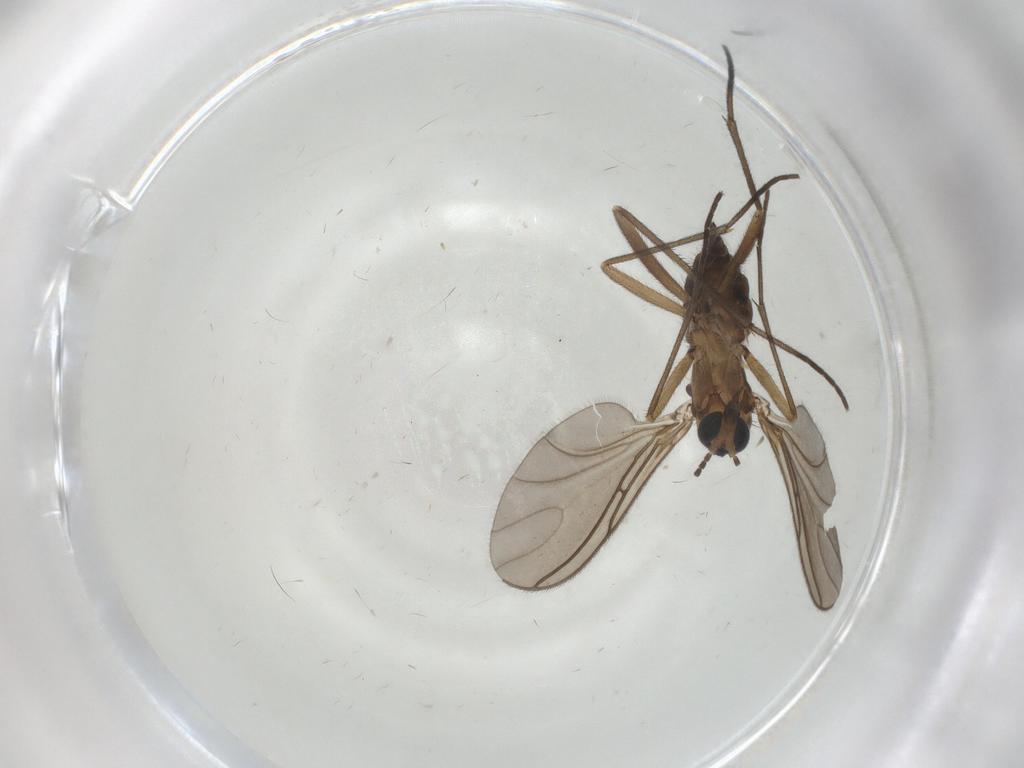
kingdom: Animalia
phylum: Arthropoda
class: Insecta
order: Diptera
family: Sciaridae
